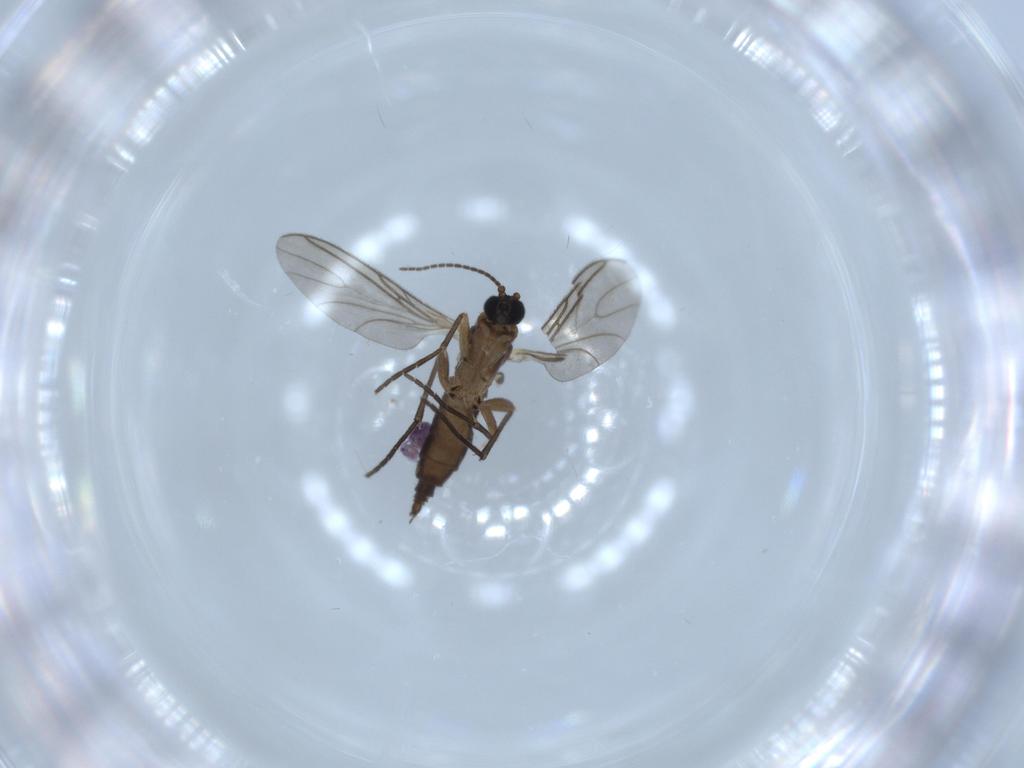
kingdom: Animalia
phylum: Arthropoda
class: Insecta
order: Diptera
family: Sciaridae
